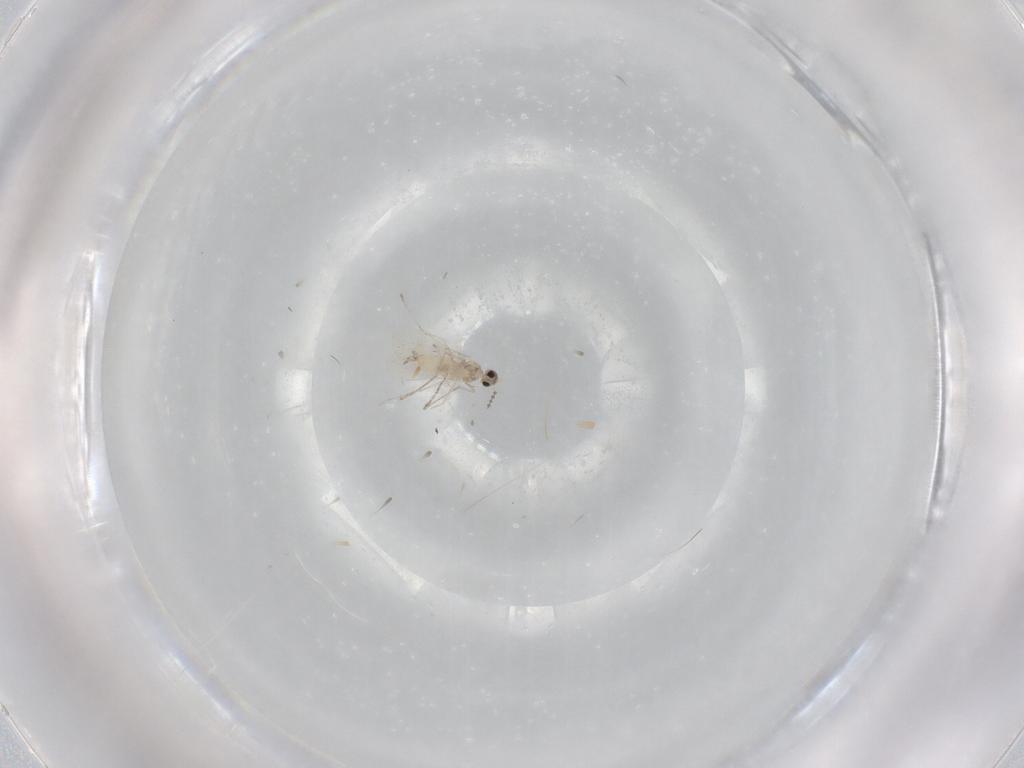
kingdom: Animalia
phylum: Arthropoda
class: Insecta
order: Diptera
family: Cecidomyiidae
